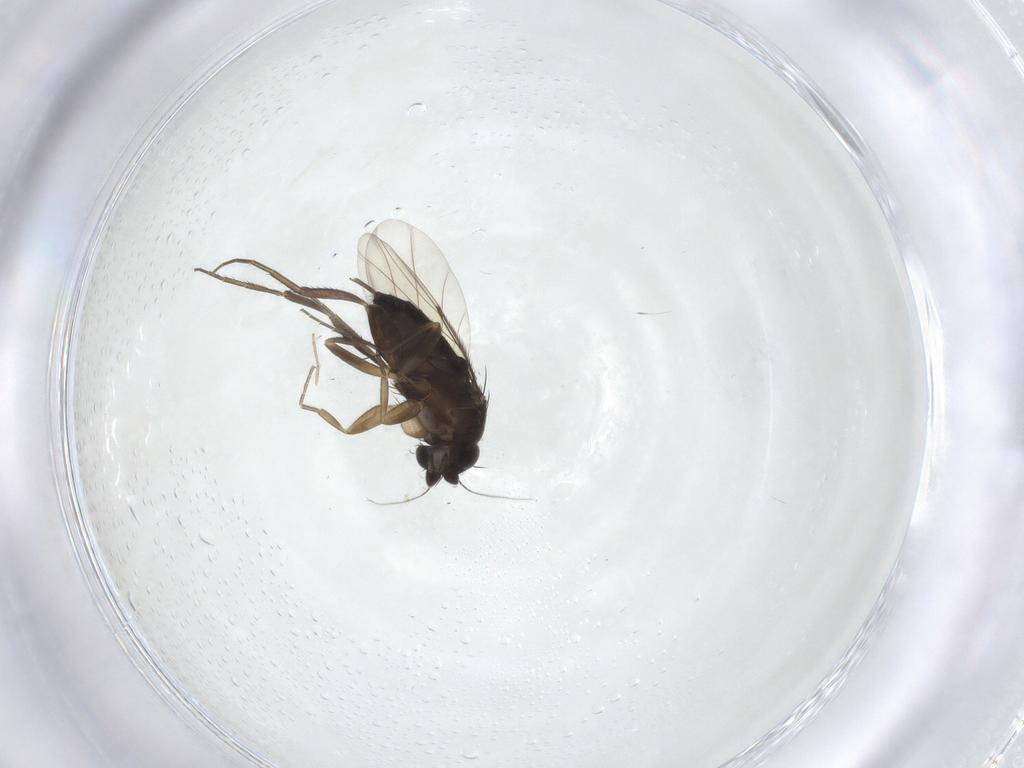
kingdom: Animalia
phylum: Arthropoda
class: Insecta
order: Diptera
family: Phoridae
